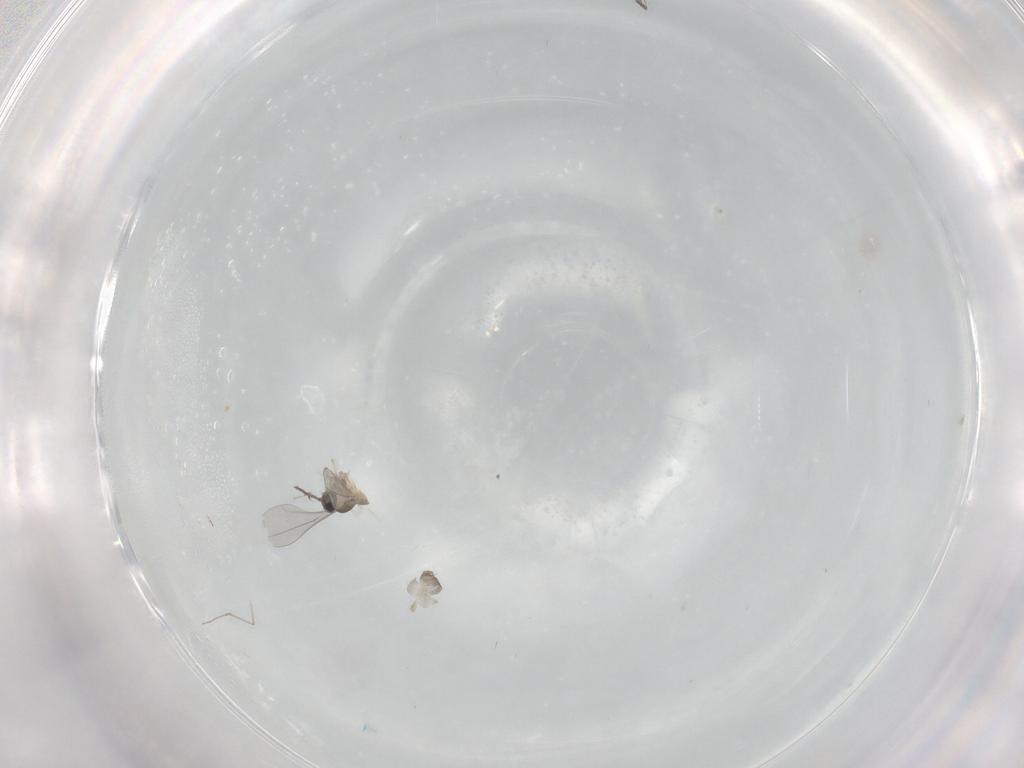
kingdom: Animalia
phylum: Arthropoda
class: Insecta
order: Diptera
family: Cecidomyiidae
